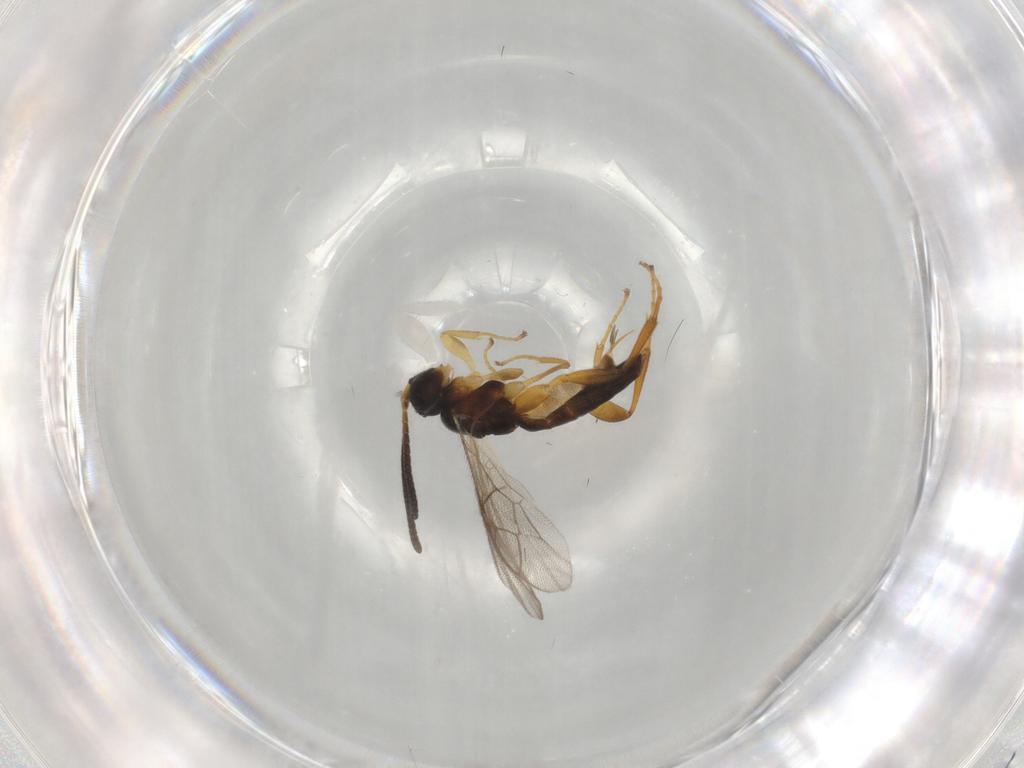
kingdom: Animalia
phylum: Arthropoda
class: Insecta
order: Hymenoptera
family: Ichneumonidae
